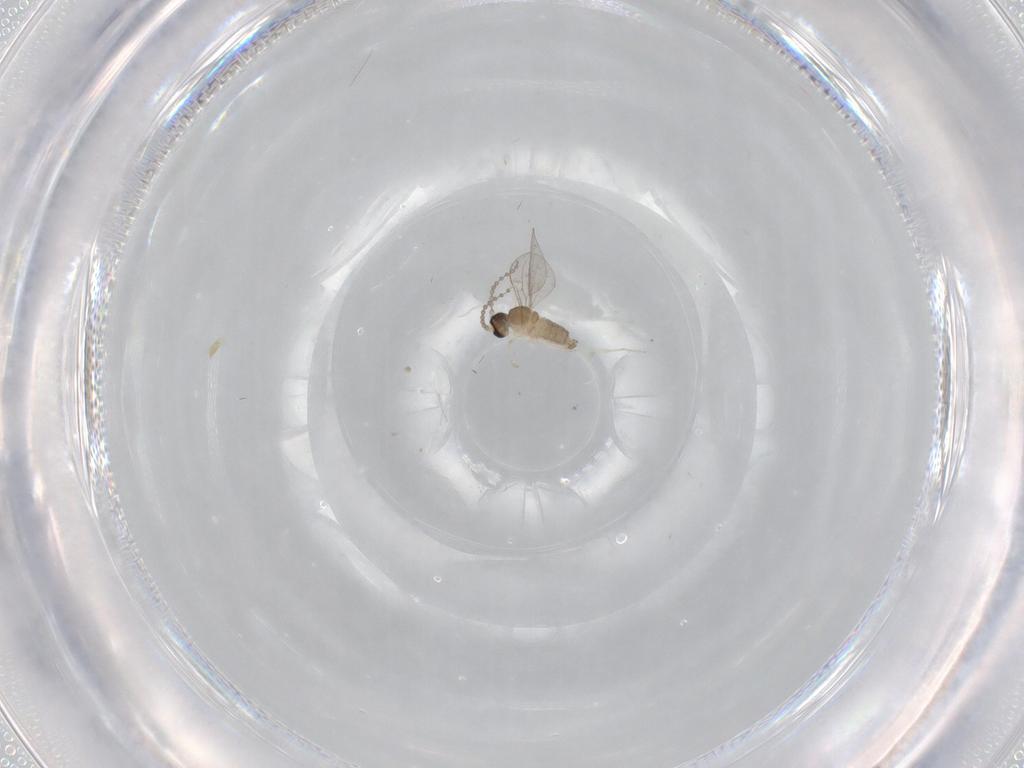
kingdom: Animalia
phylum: Arthropoda
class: Insecta
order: Diptera
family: Cecidomyiidae
